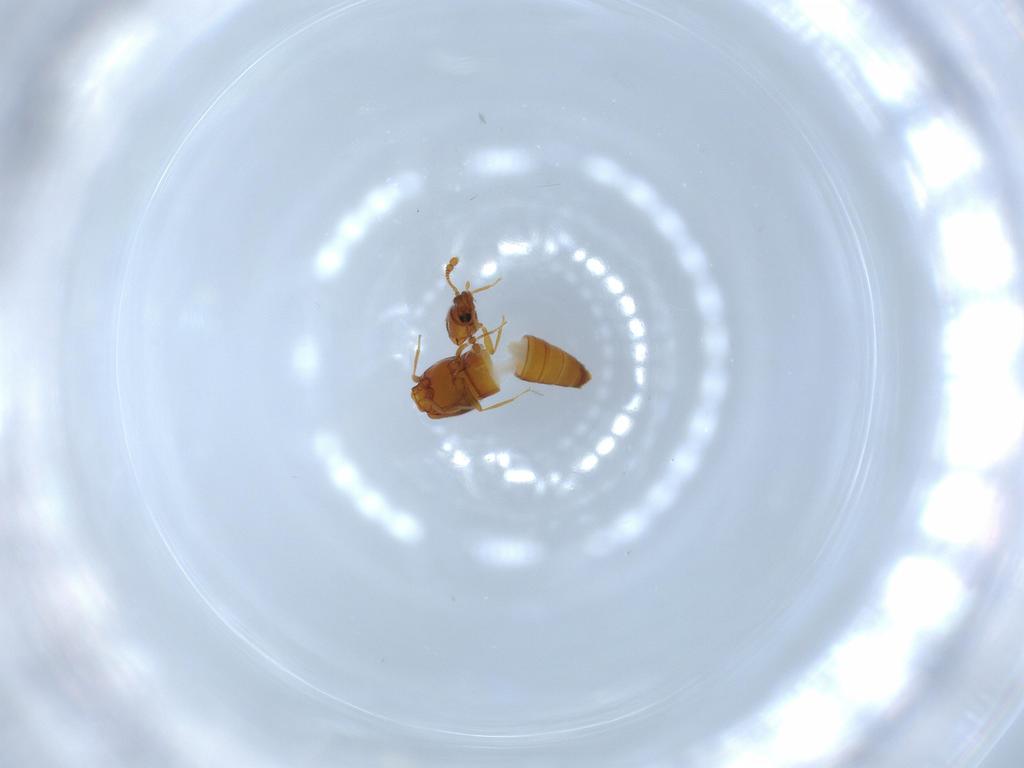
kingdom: Animalia
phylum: Arthropoda
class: Insecta
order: Coleoptera
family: Staphylinidae
